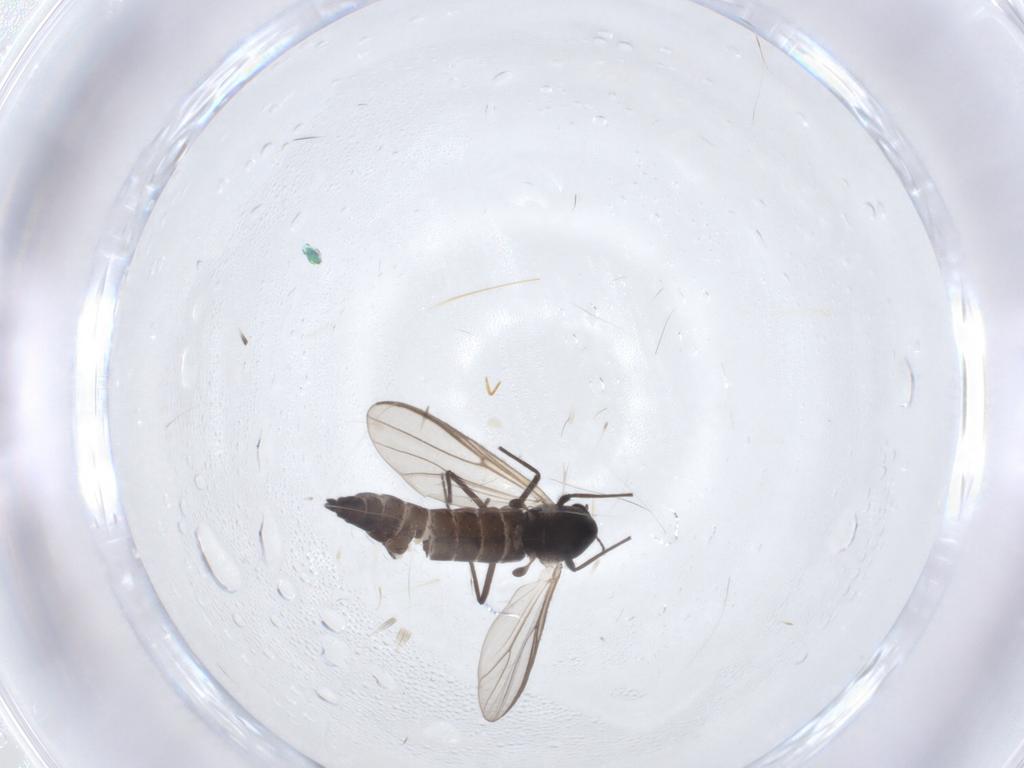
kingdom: Animalia
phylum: Arthropoda
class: Insecta
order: Diptera
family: Chironomidae
